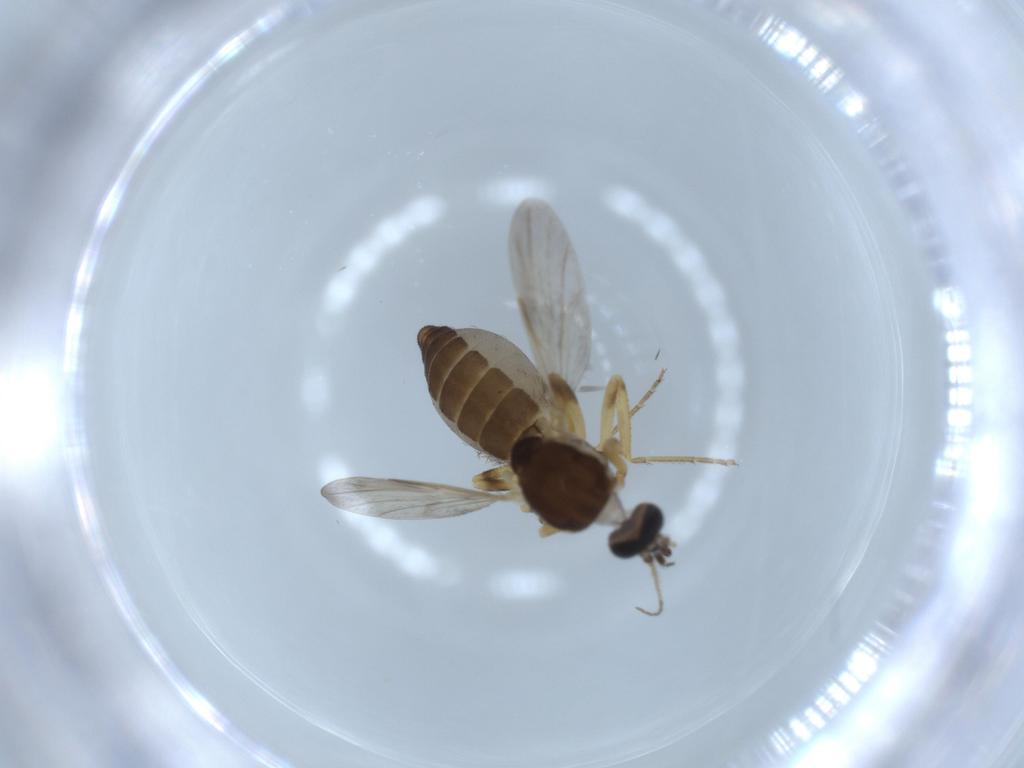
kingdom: Animalia
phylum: Arthropoda
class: Insecta
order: Diptera
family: Ceratopogonidae
